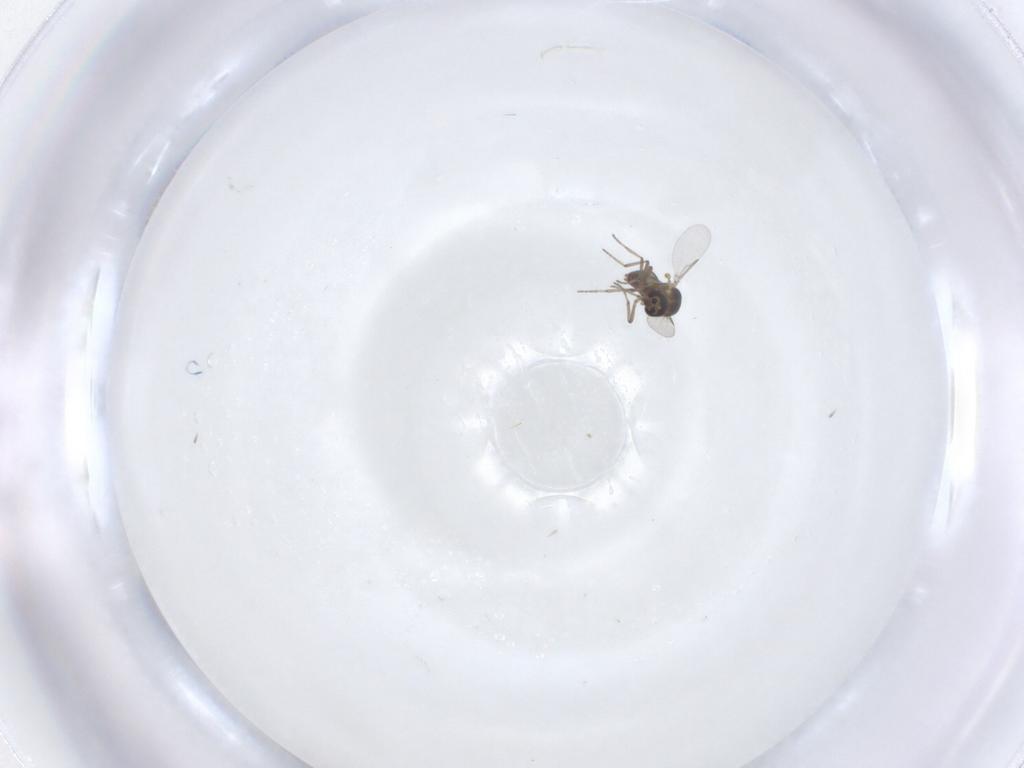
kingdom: Animalia
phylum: Arthropoda
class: Insecta
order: Diptera
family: Ceratopogonidae
